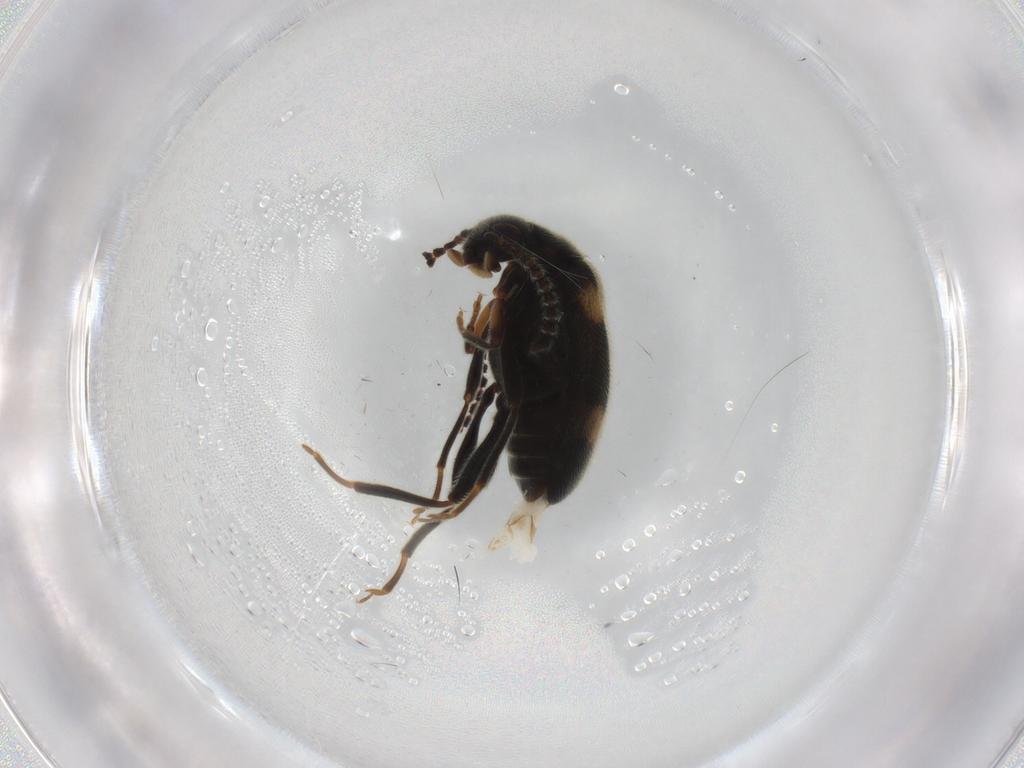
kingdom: Animalia
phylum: Arthropoda
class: Insecta
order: Coleoptera
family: Aderidae
